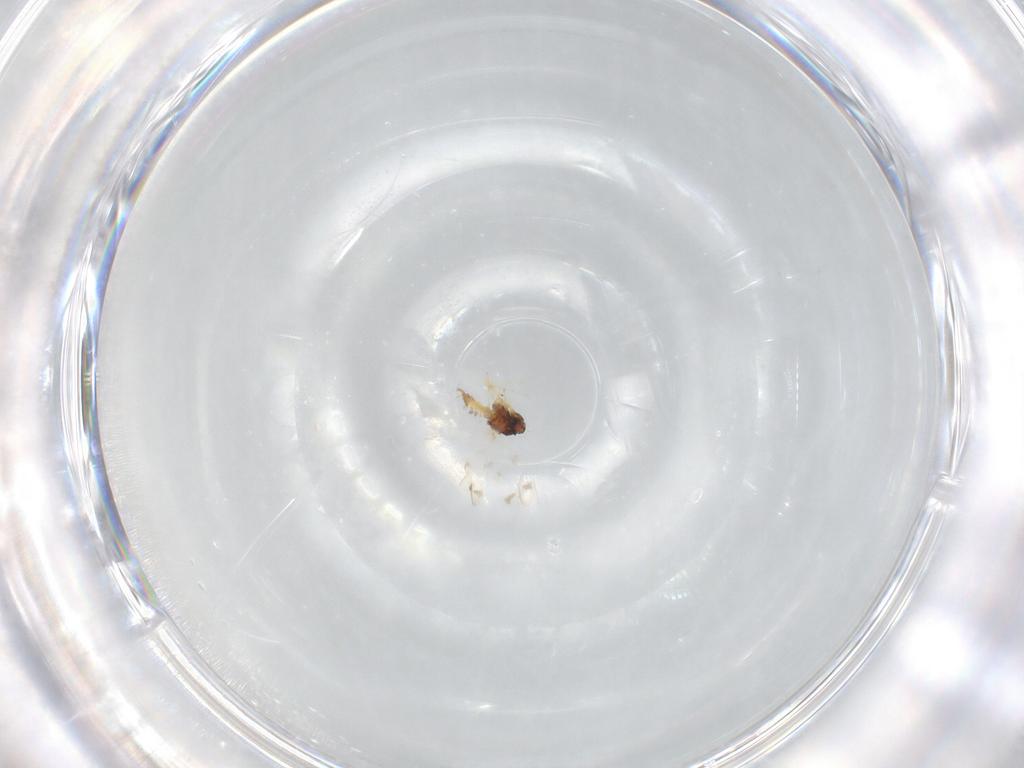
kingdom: Animalia
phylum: Arthropoda
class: Insecta
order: Hemiptera
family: Aleyrodidae
